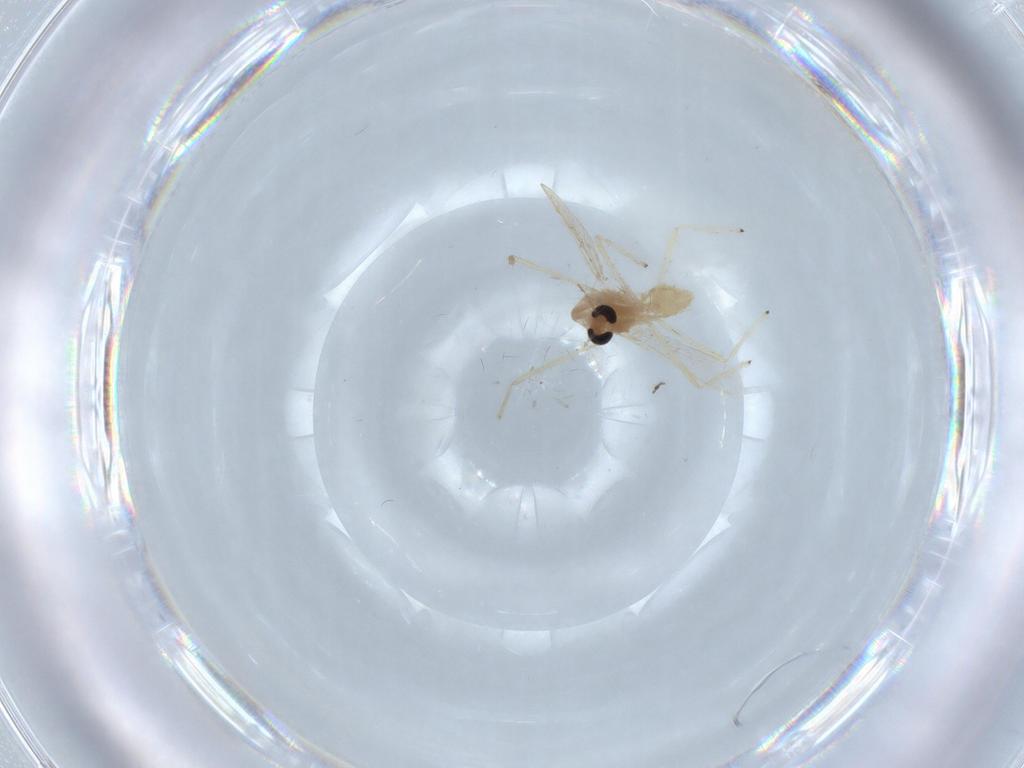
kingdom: Animalia
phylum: Arthropoda
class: Insecta
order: Diptera
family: Chironomidae
